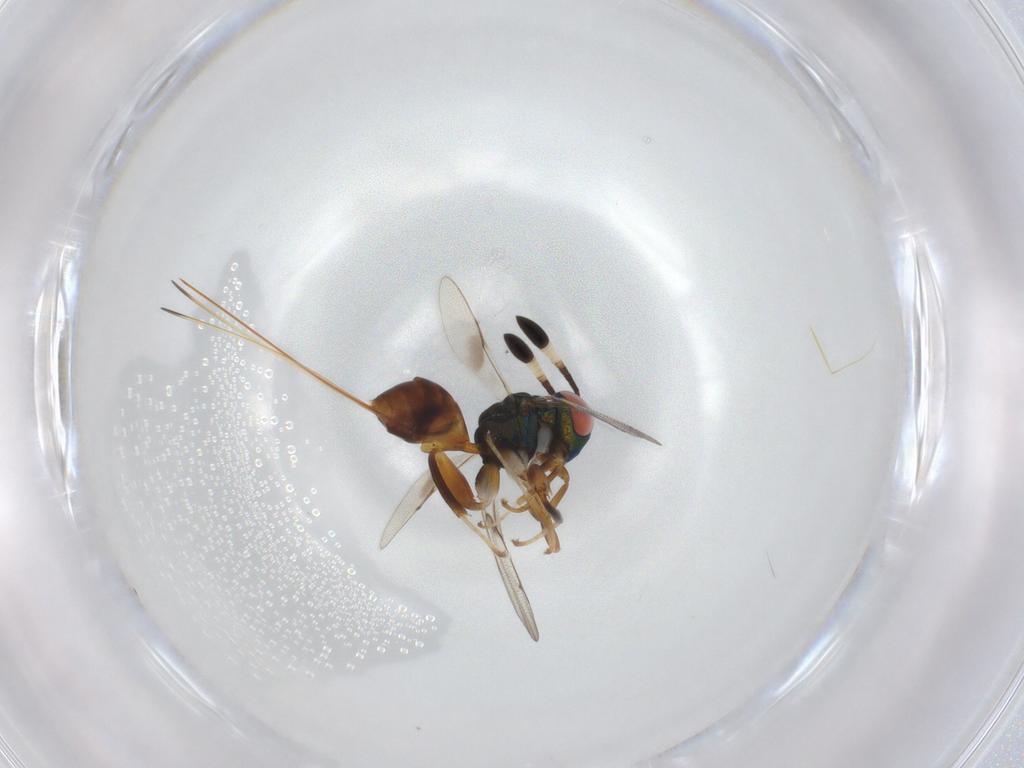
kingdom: Animalia
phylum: Arthropoda
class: Insecta
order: Hymenoptera
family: Torymidae
